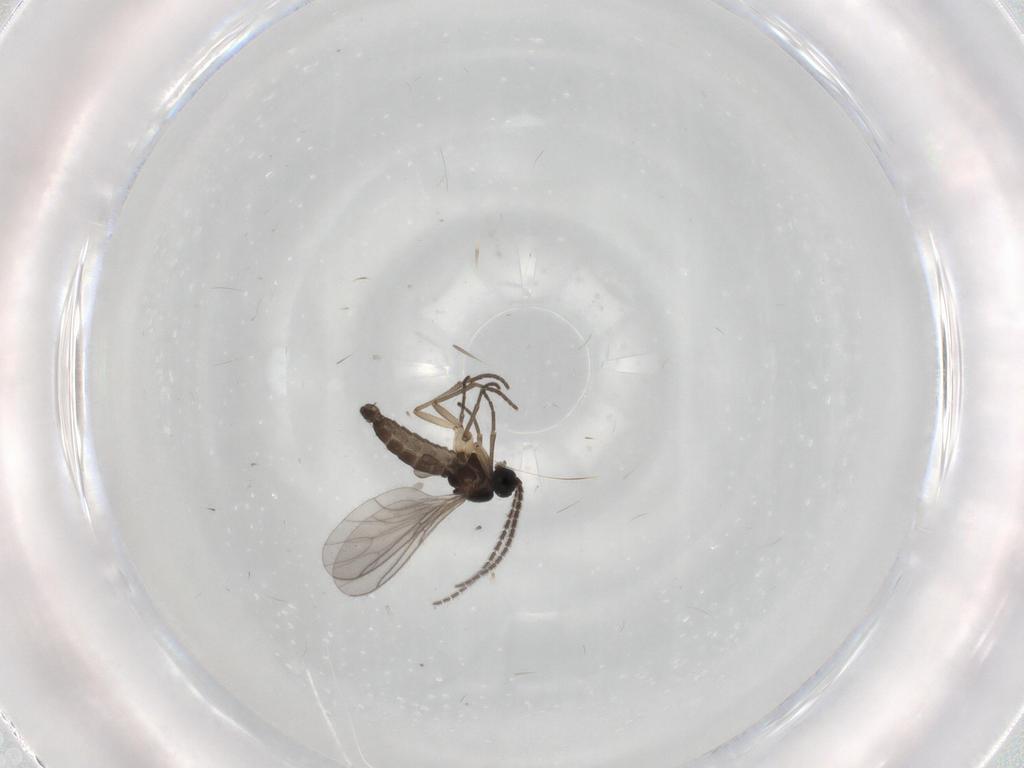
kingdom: Animalia
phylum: Arthropoda
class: Insecta
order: Diptera
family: Sciaridae
